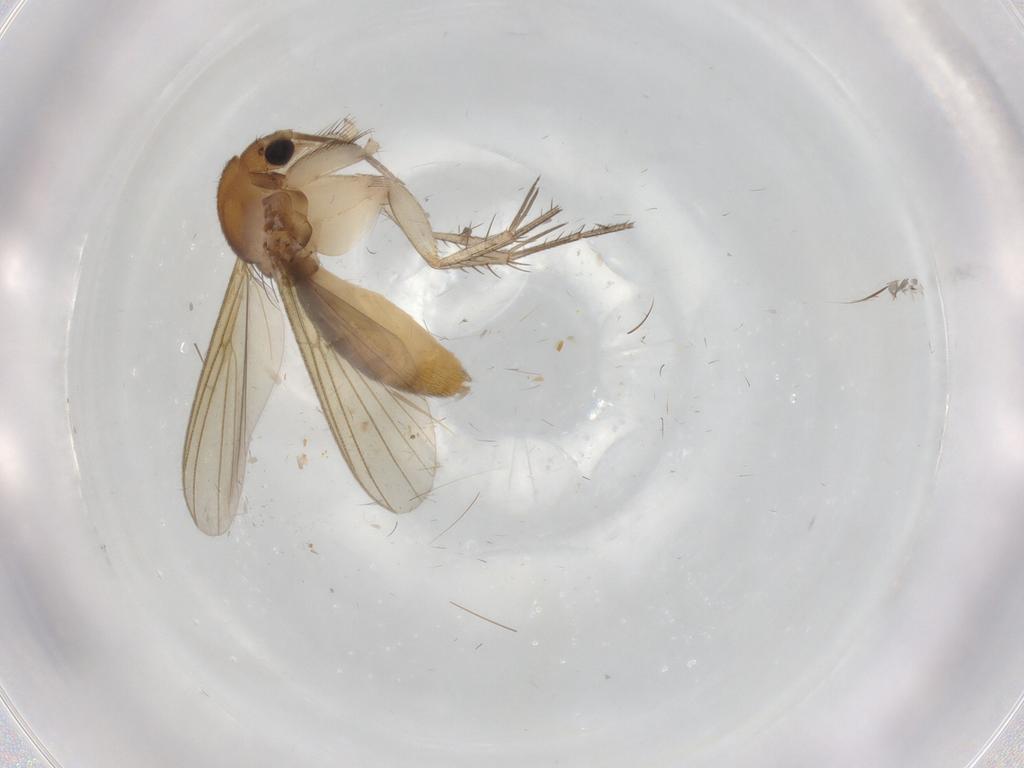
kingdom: Animalia
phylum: Arthropoda
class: Insecta
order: Diptera
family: Mycetophilidae
